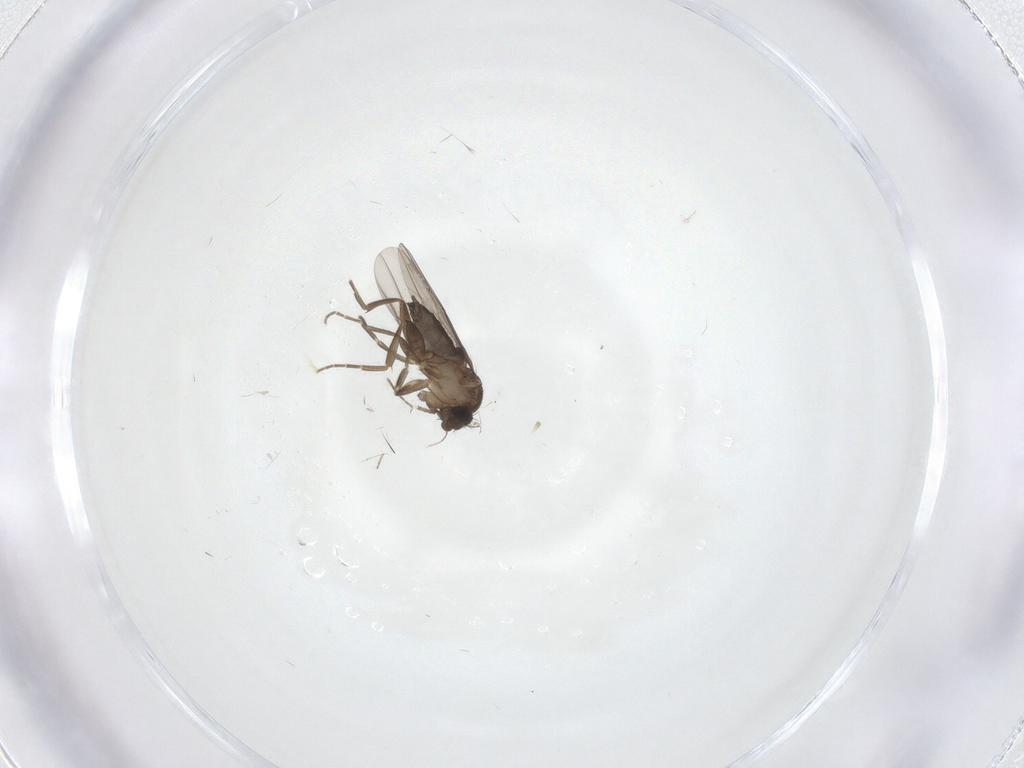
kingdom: Animalia
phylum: Arthropoda
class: Insecta
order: Diptera
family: Phoridae
